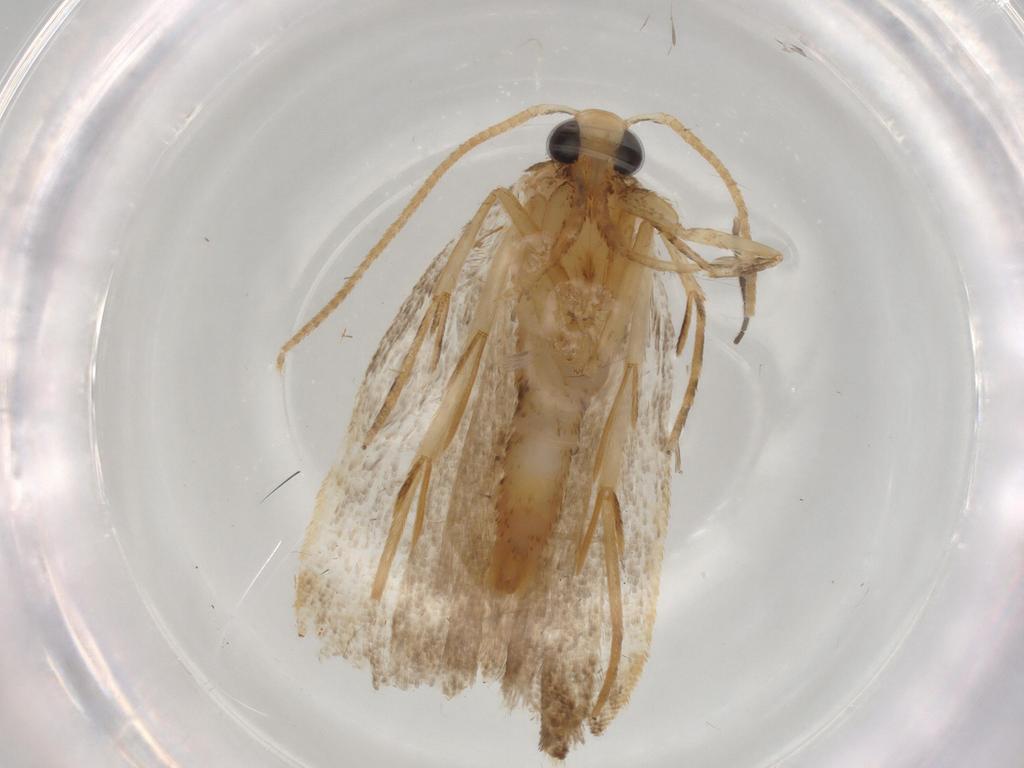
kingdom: Animalia
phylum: Arthropoda
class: Insecta
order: Lepidoptera
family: Autostichidae
